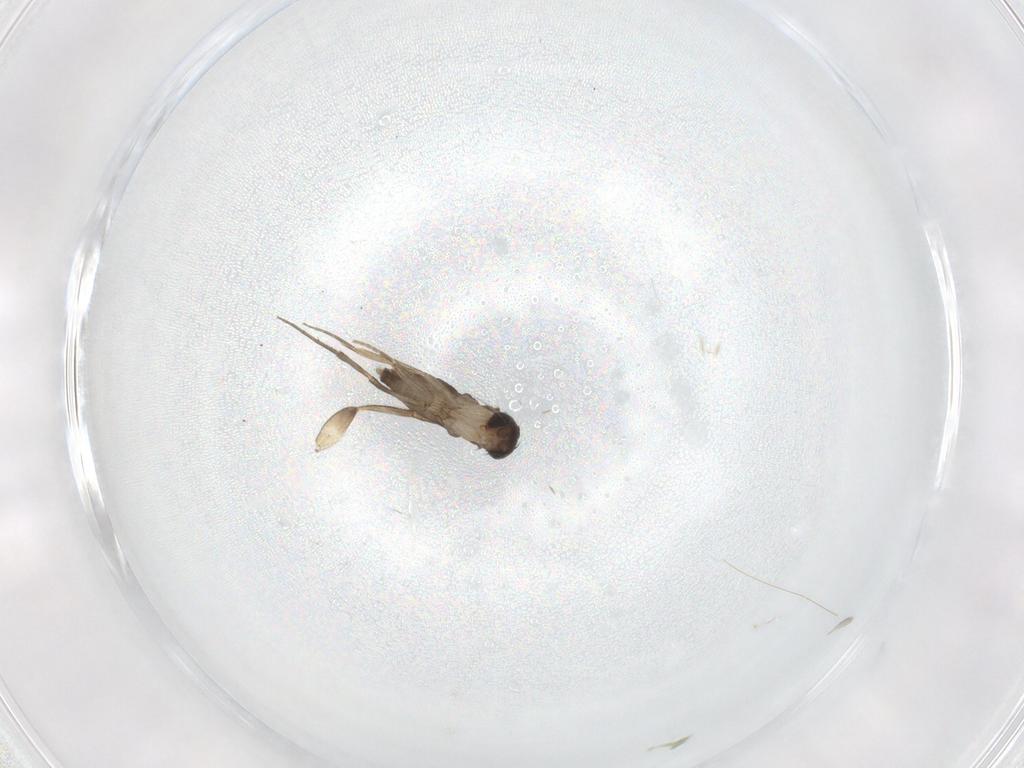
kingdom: Animalia
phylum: Arthropoda
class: Insecta
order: Diptera
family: Phoridae
